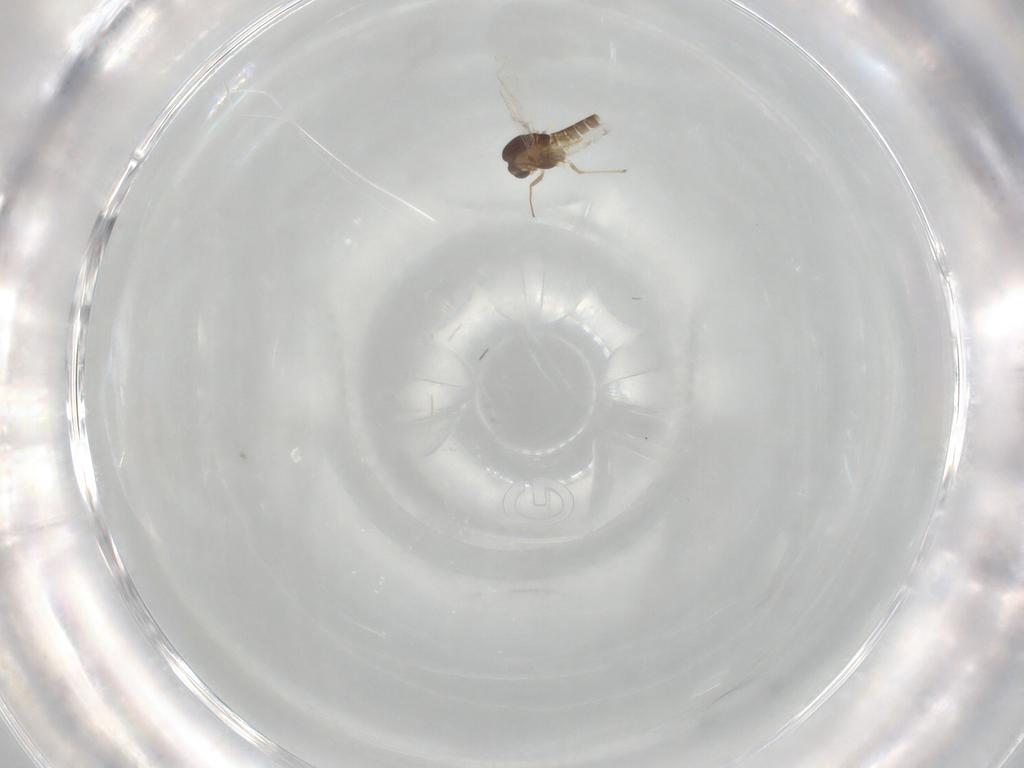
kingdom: Animalia
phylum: Arthropoda
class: Insecta
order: Diptera
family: Chironomidae
